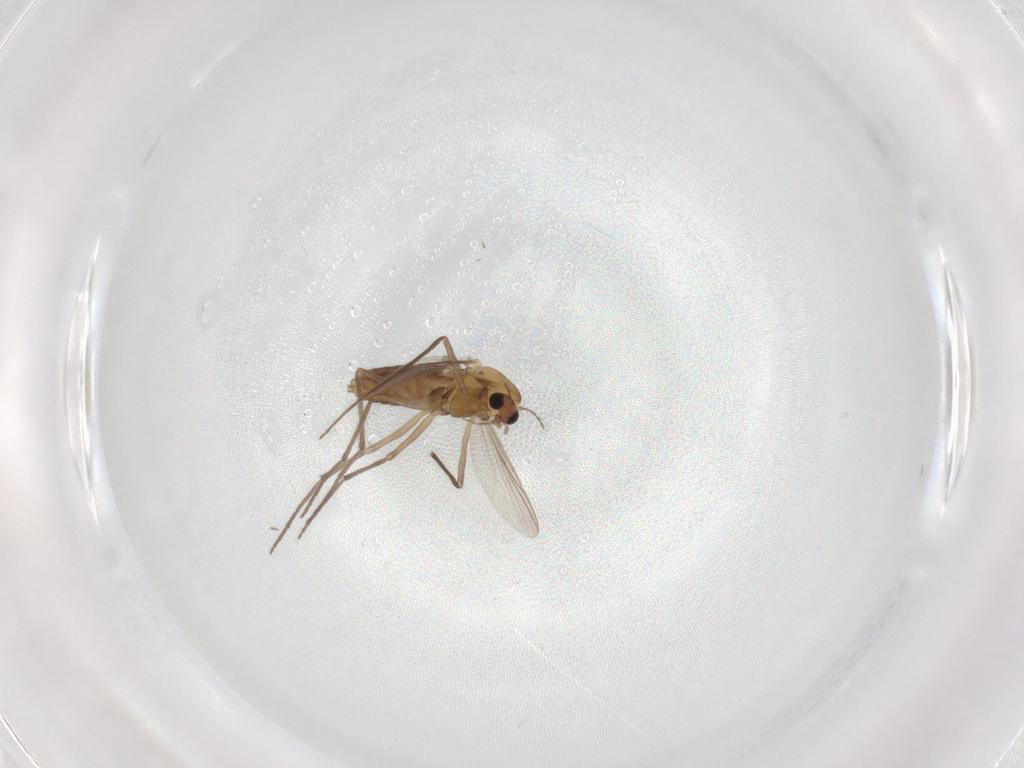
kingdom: Animalia
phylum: Arthropoda
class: Insecta
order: Diptera
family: Chironomidae
